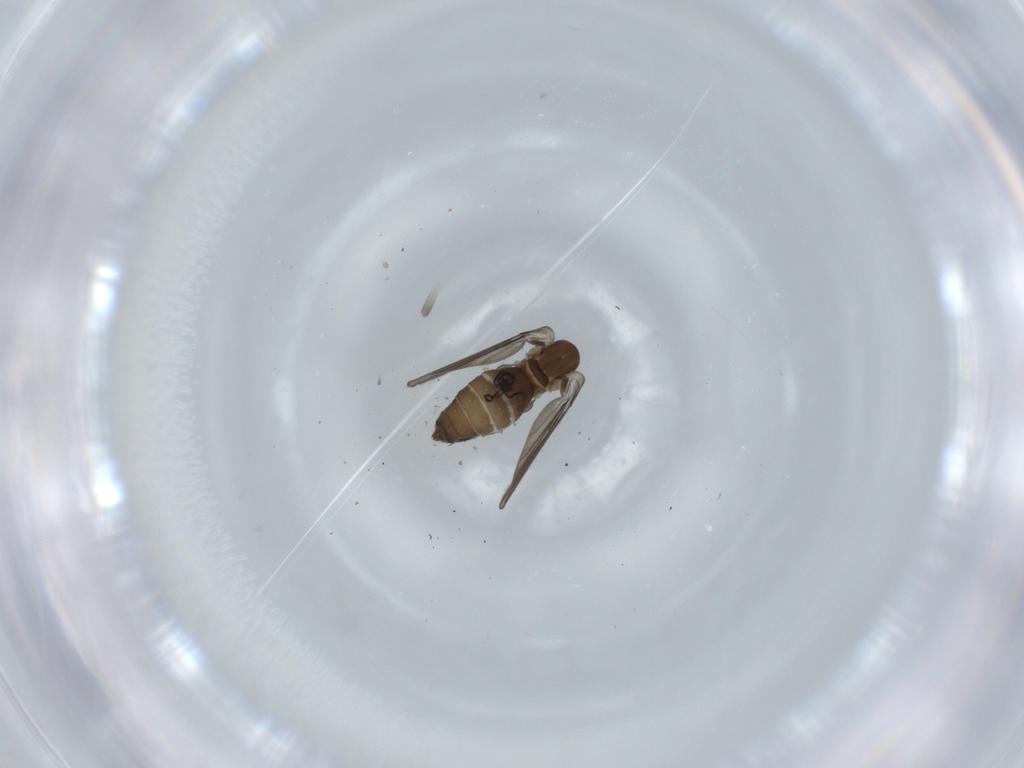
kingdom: Animalia
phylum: Arthropoda
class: Insecta
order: Diptera
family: Psychodidae
